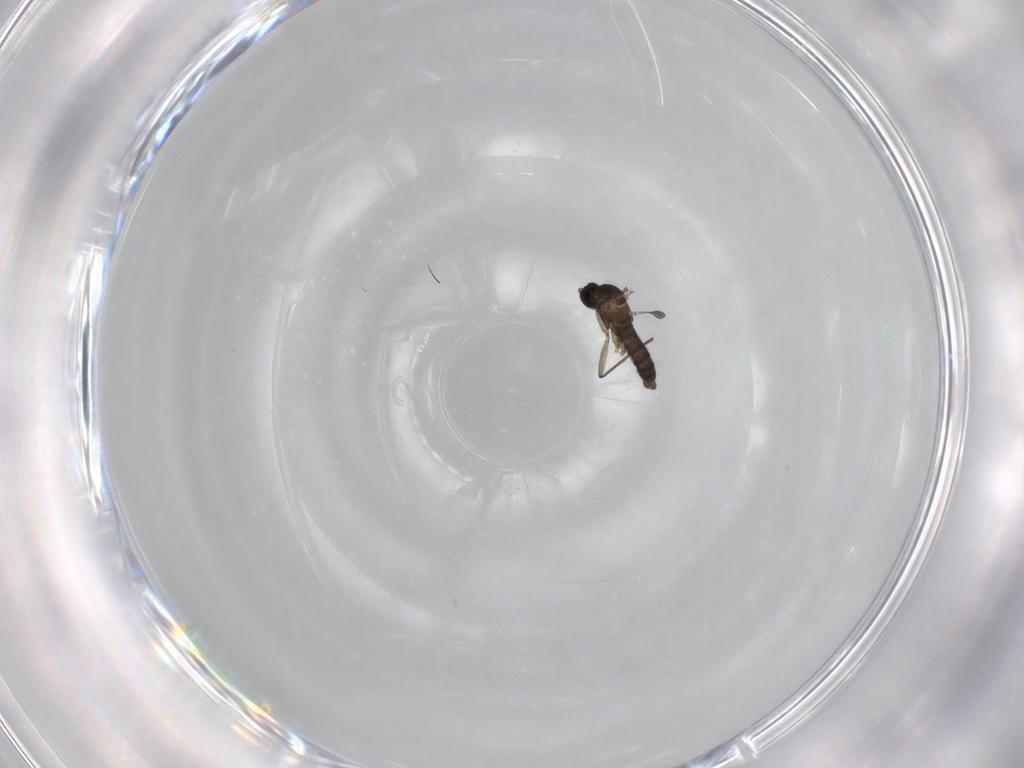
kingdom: Animalia
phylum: Arthropoda
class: Insecta
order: Diptera
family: Sciaridae
